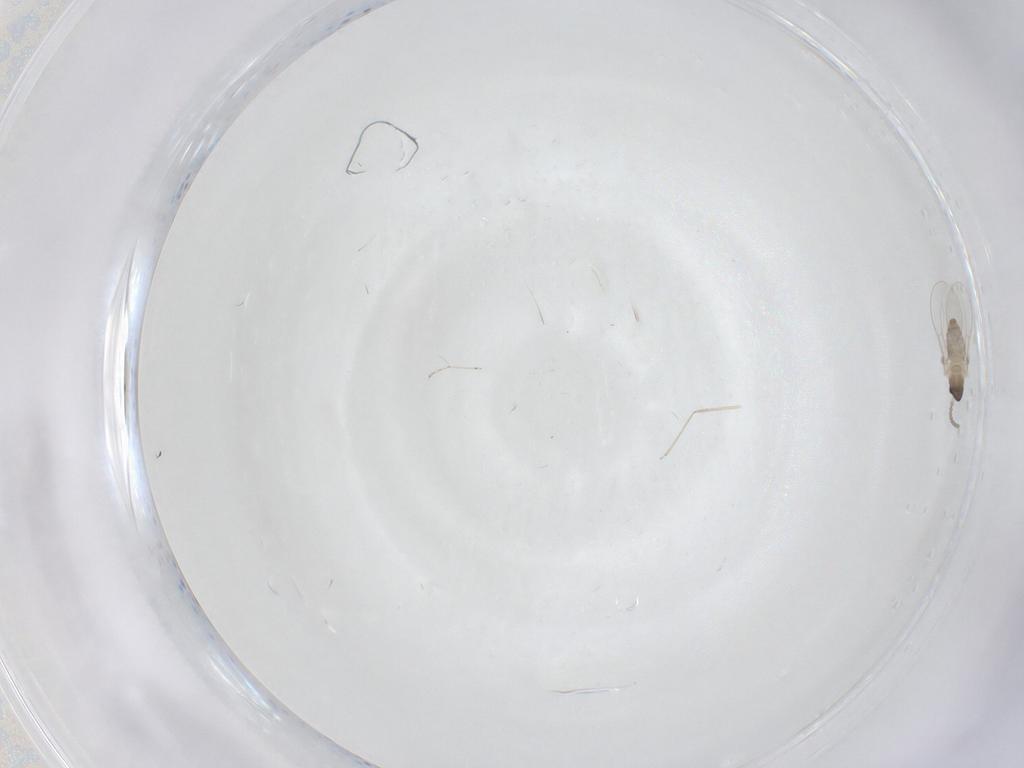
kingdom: Animalia
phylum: Arthropoda
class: Insecta
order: Diptera
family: Cecidomyiidae
